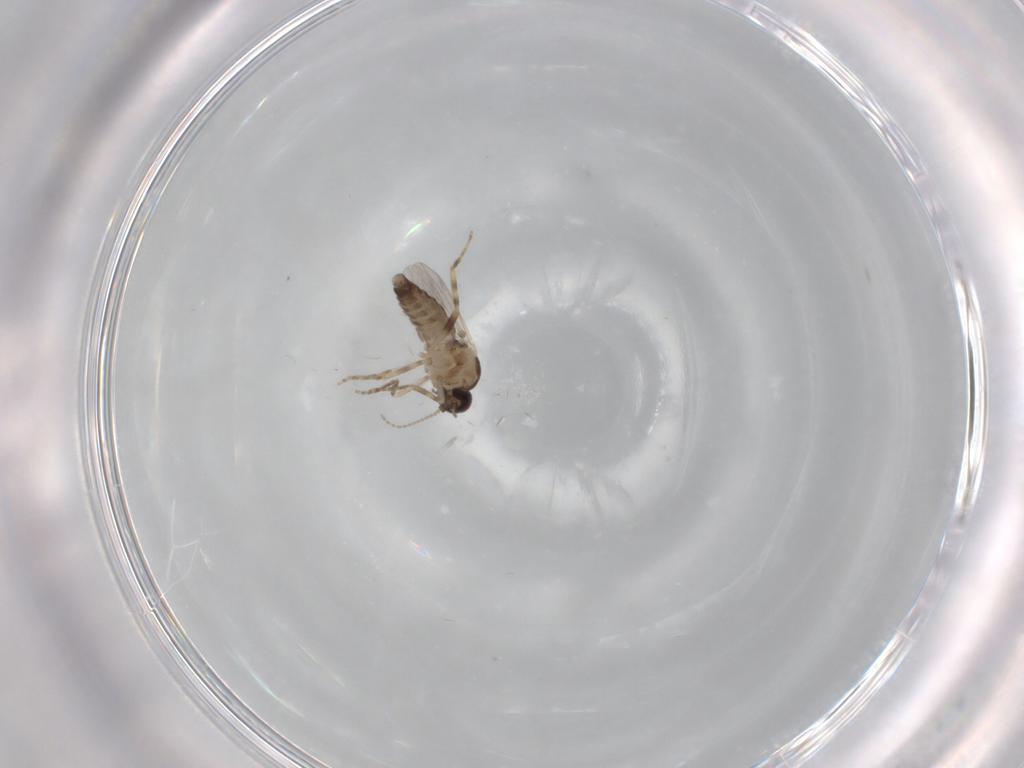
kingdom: Animalia
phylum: Arthropoda
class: Insecta
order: Diptera
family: Ceratopogonidae
